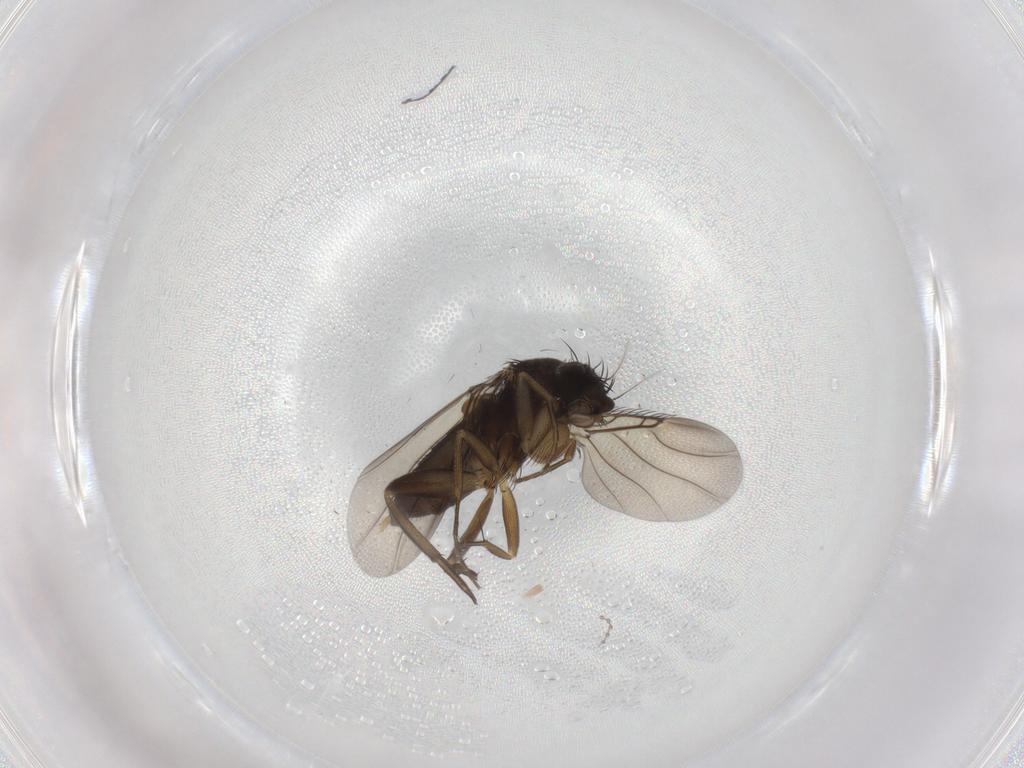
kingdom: Animalia
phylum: Arthropoda
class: Insecta
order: Diptera
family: Phoridae
